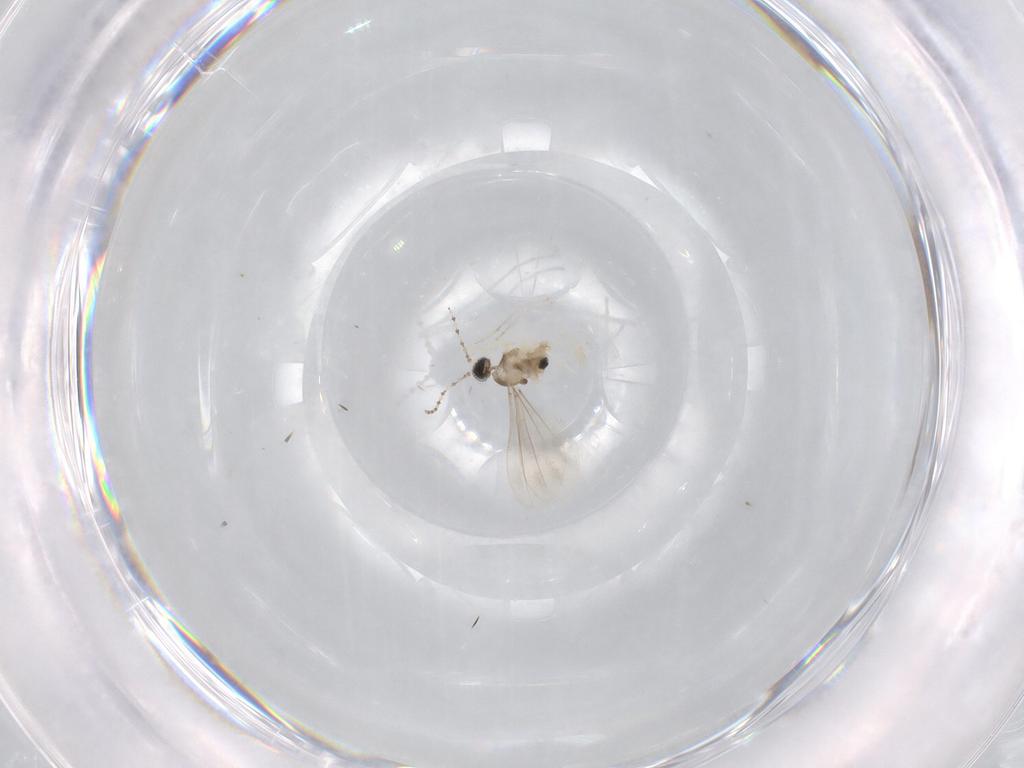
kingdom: Animalia
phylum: Arthropoda
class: Insecta
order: Diptera
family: Cecidomyiidae
